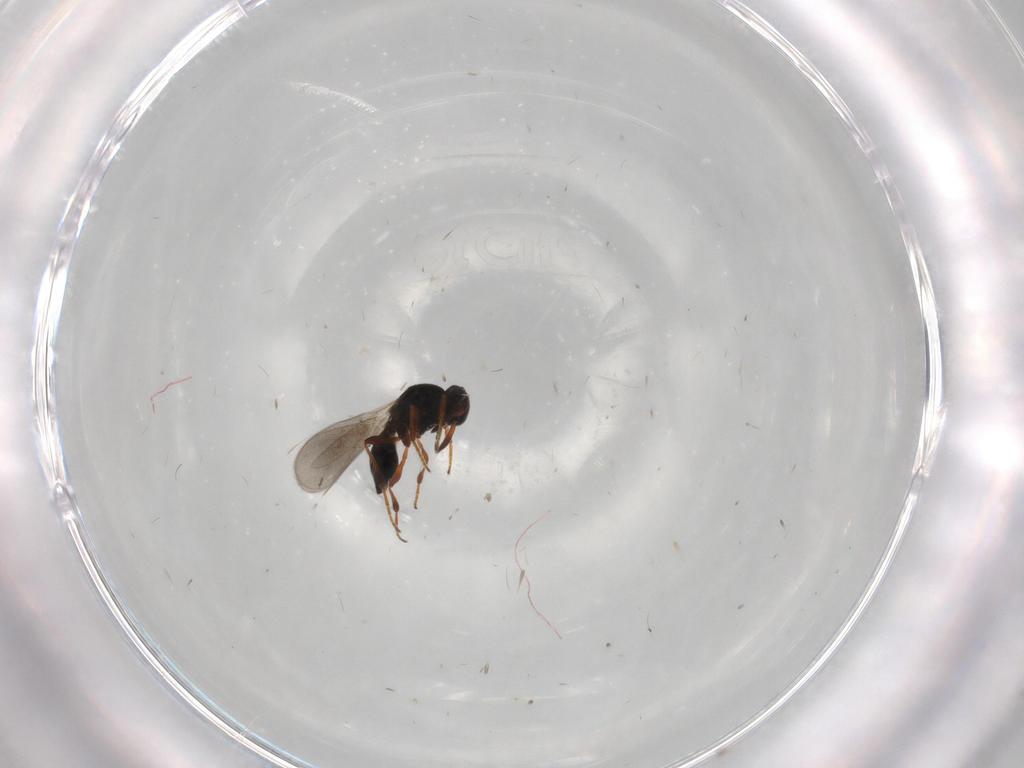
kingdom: Animalia
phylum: Arthropoda
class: Insecta
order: Hymenoptera
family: Platygastridae
